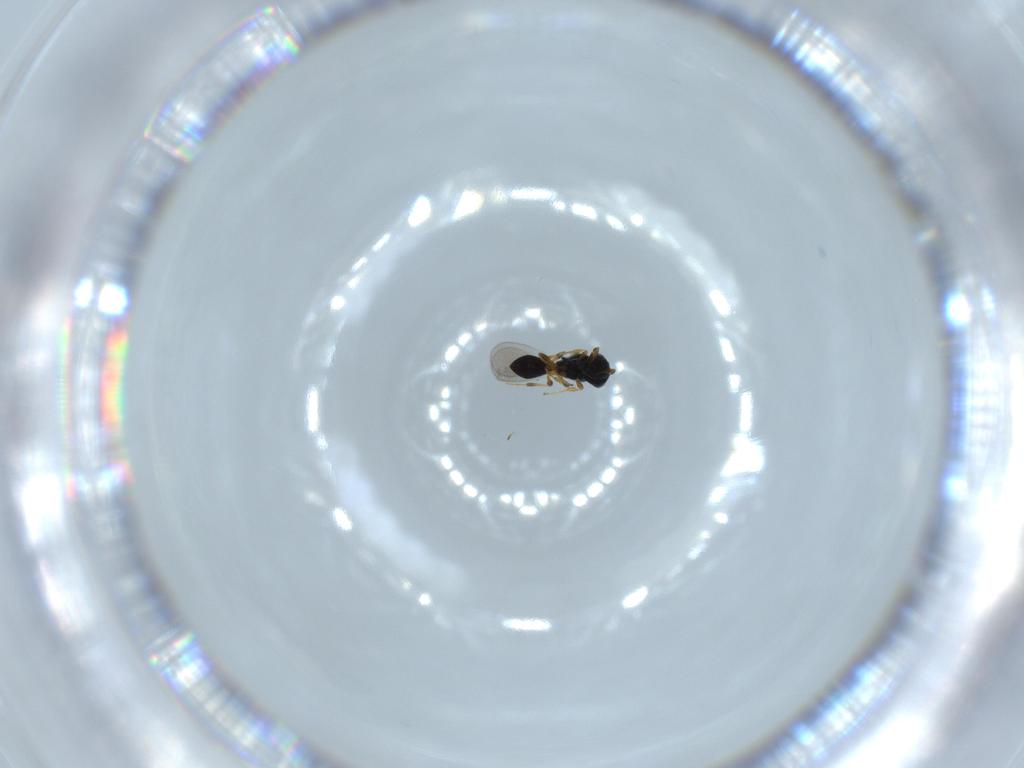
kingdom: Animalia
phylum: Arthropoda
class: Insecta
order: Hymenoptera
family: Platygastridae
